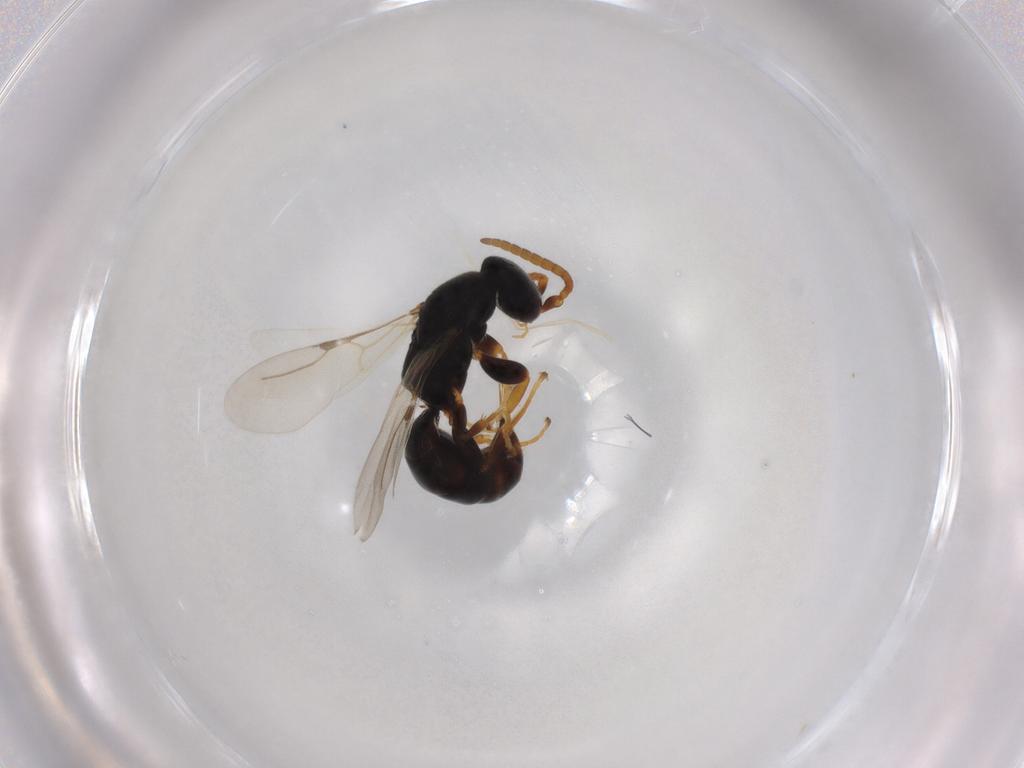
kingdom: Animalia
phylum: Arthropoda
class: Insecta
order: Hymenoptera
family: Bethylidae
